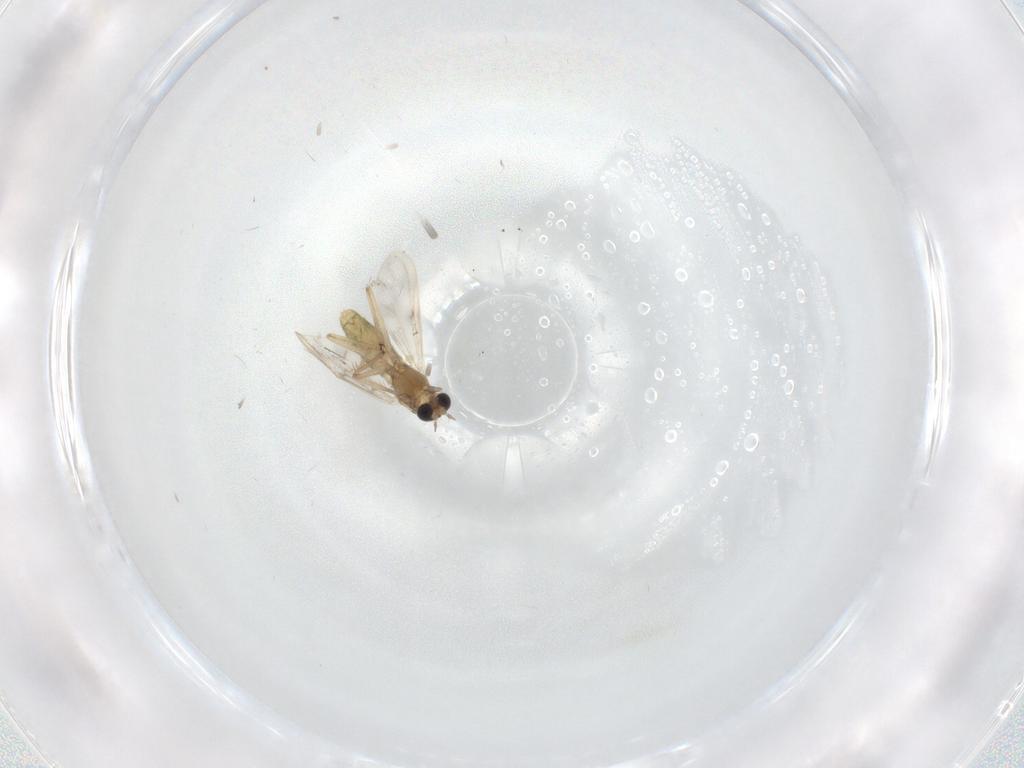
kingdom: Animalia
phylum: Arthropoda
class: Insecta
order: Diptera
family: Chironomidae
